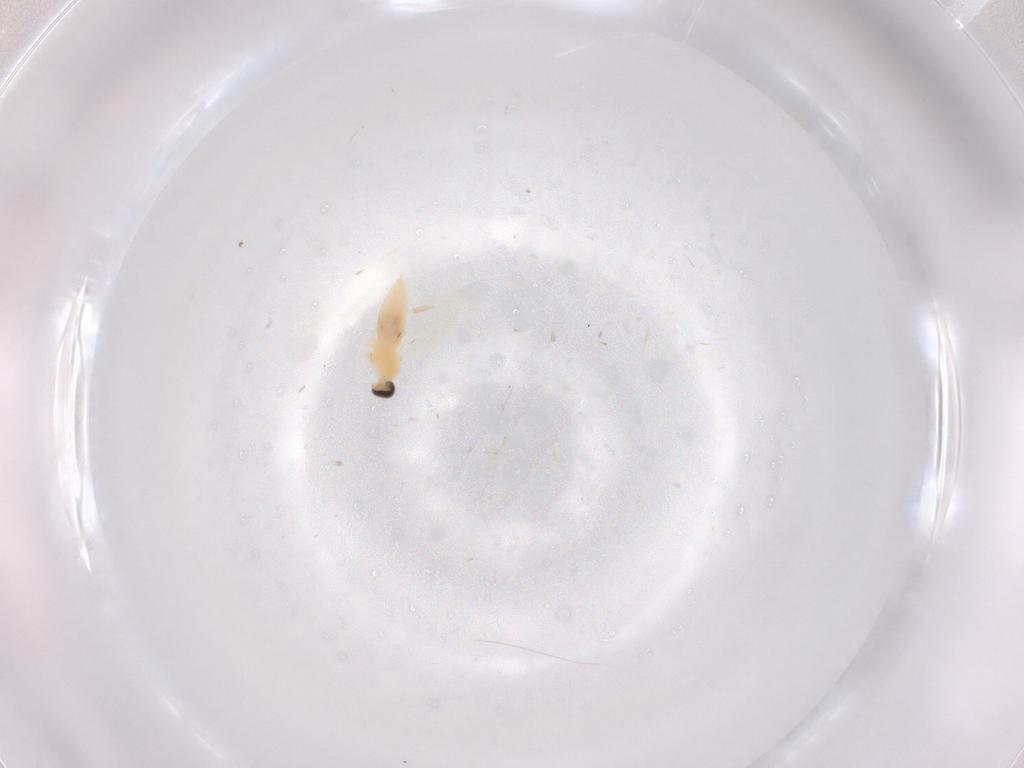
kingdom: Animalia
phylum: Arthropoda
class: Insecta
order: Diptera
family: Cecidomyiidae
